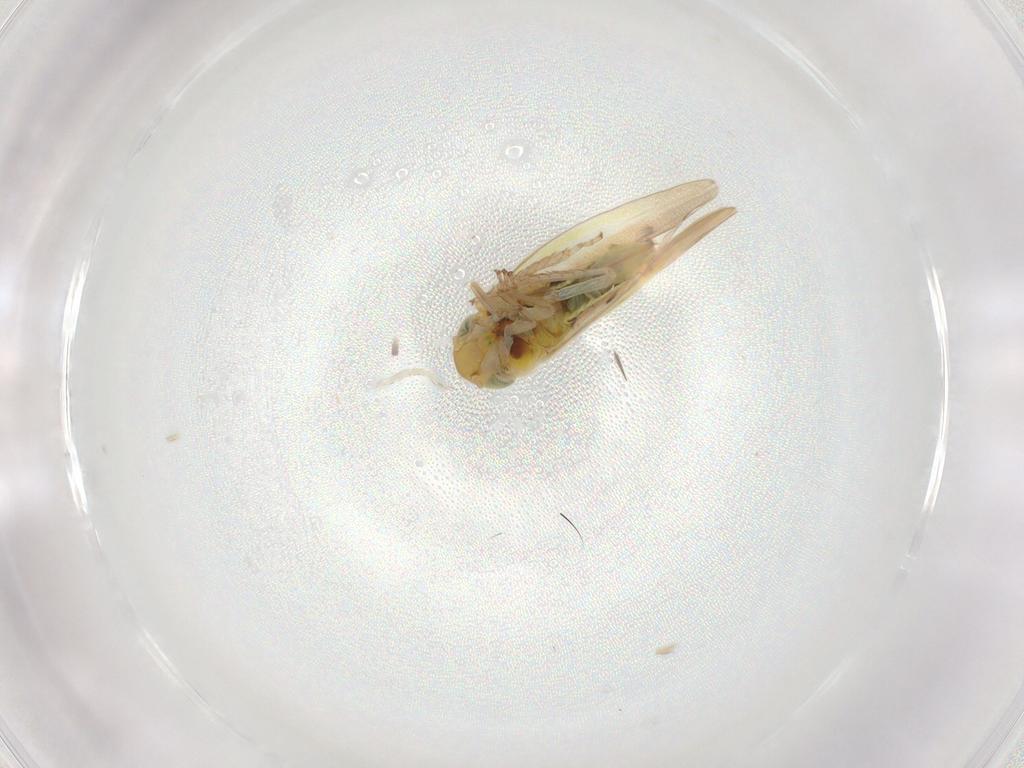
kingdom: Animalia
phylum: Arthropoda
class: Insecta
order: Hemiptera
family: Cicadellidae
